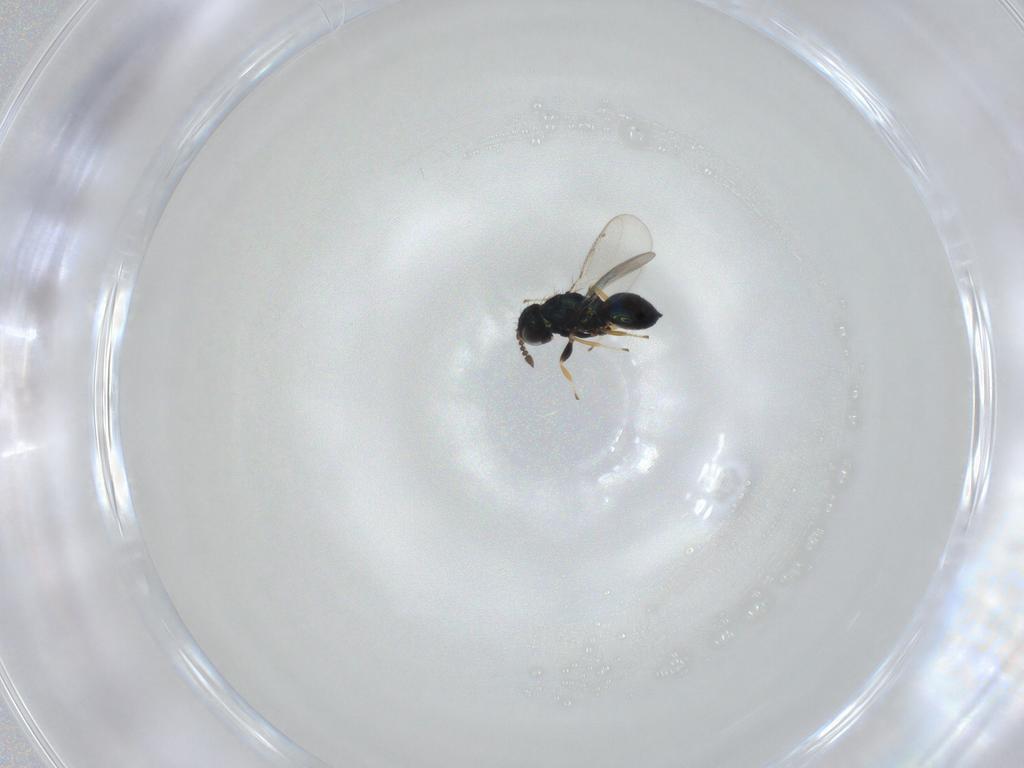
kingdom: Animalia
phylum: Arthropoda
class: Insecta
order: Hymenoptera
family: Eulophidae
